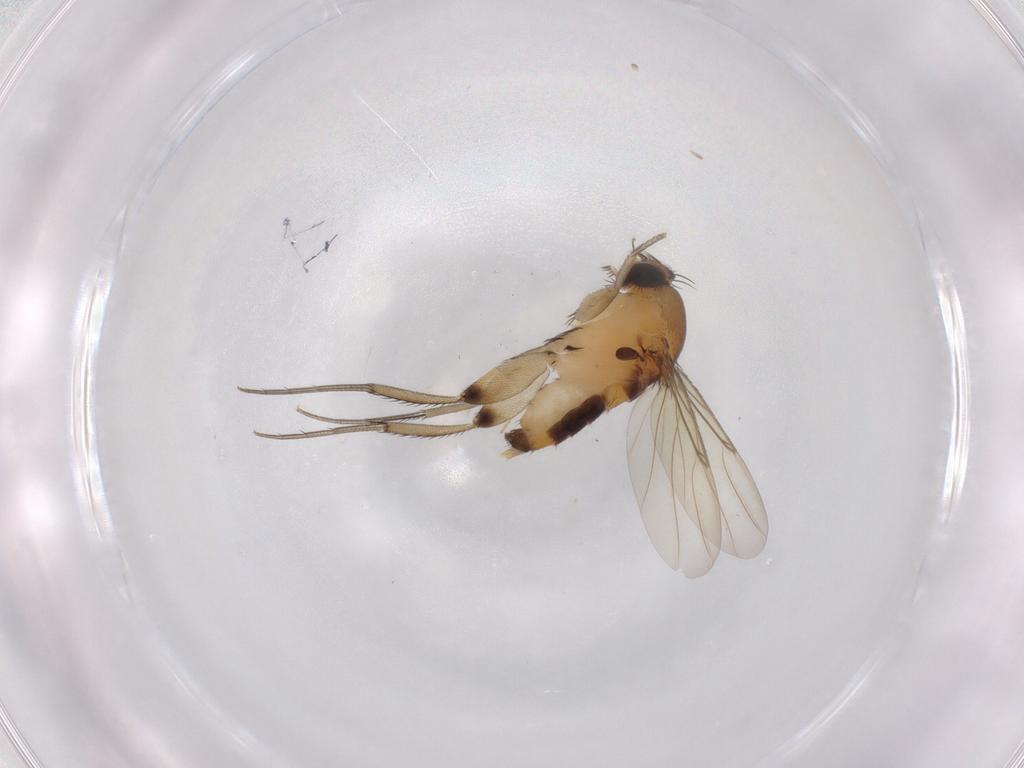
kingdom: Animalia
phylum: Arthropoda
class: Insecta
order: Diptera
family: Phoridae
